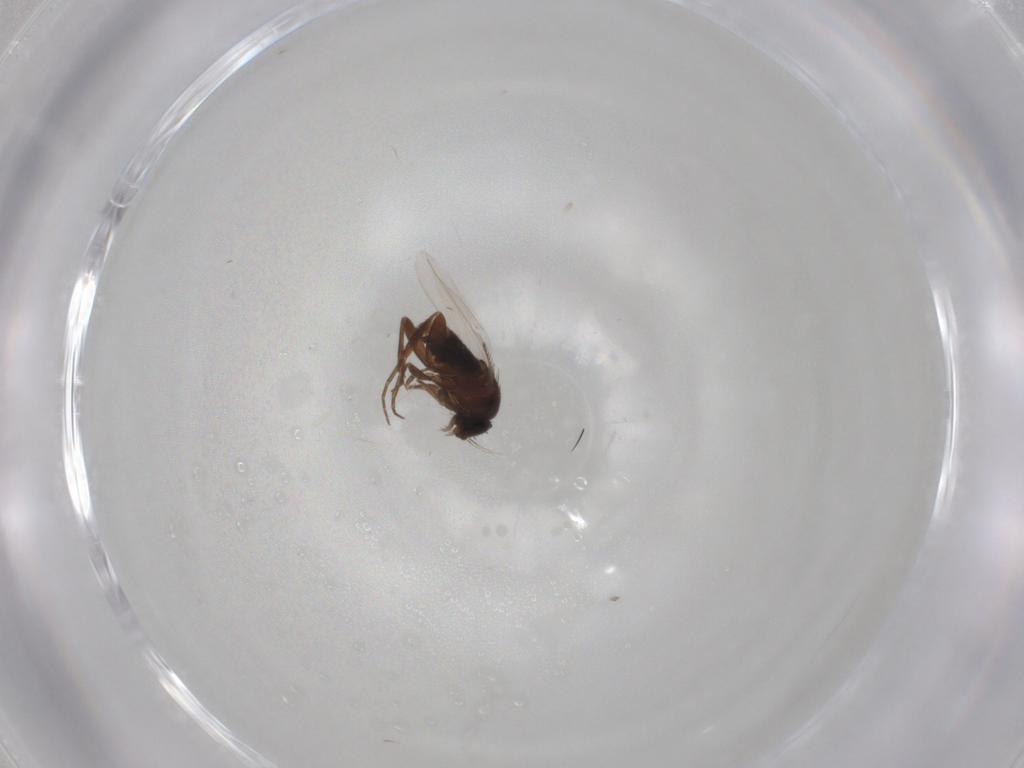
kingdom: Animalia
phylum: Arthropoda
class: Insecta
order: Diptera
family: Phoridae
